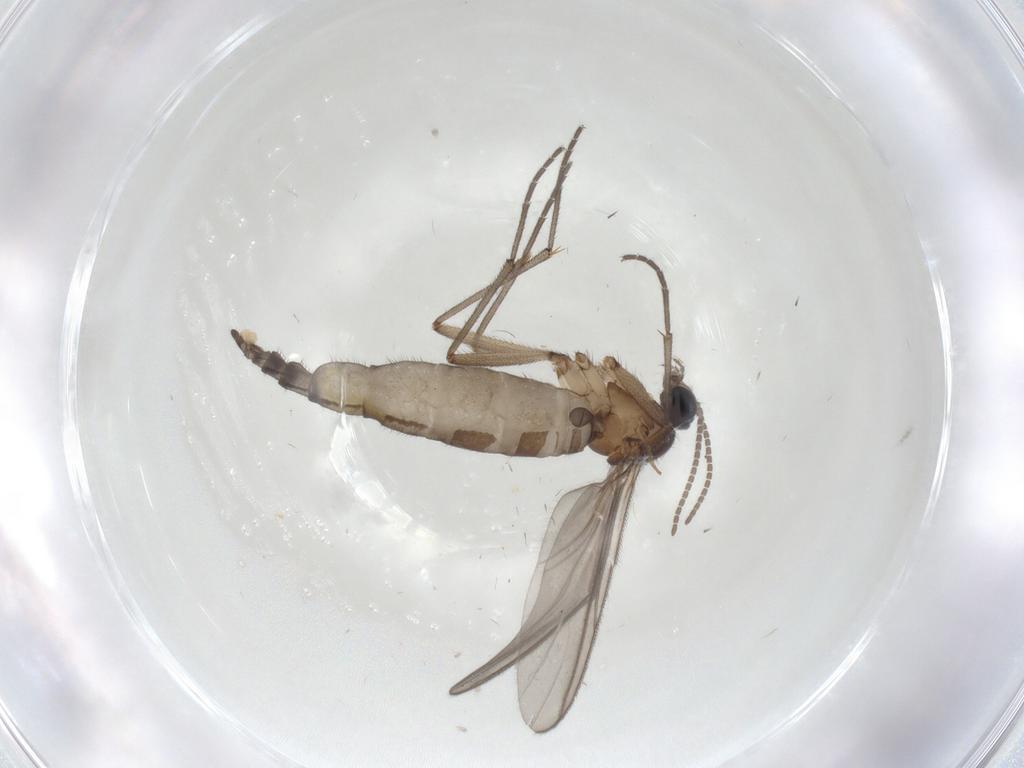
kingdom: Animalia
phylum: Arthropoda
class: Insecta
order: Diptera
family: Sciaridae
